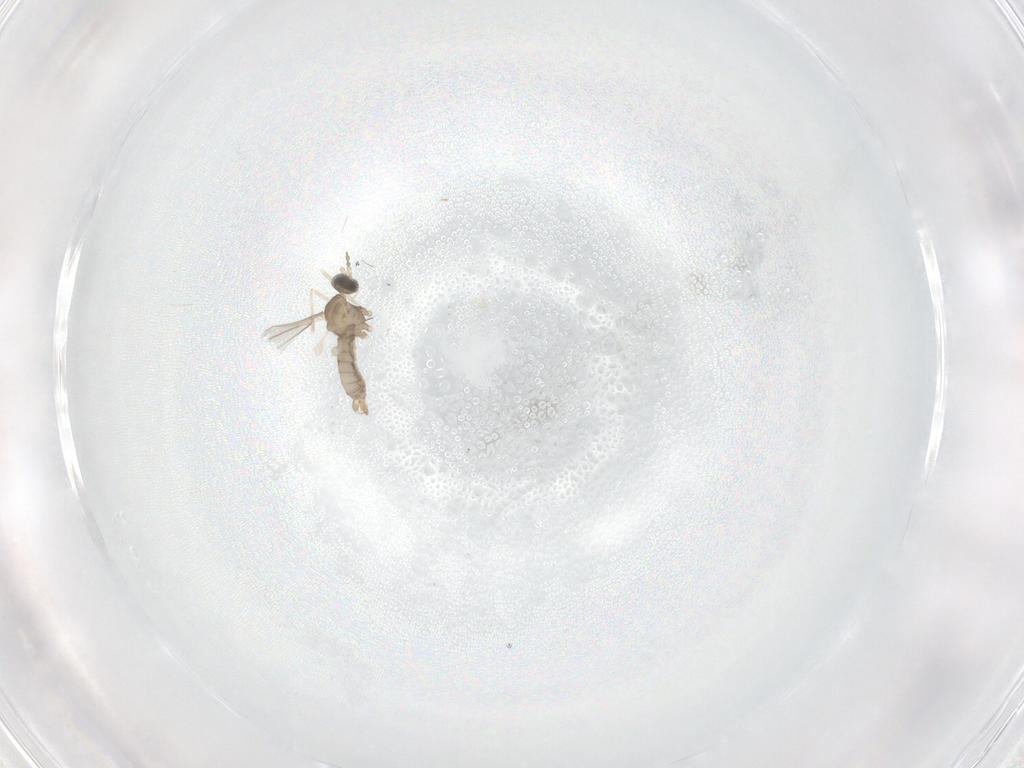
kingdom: Animalia
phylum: Arthropoda
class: Insecta
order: Diptera
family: Cecidomyiidae
